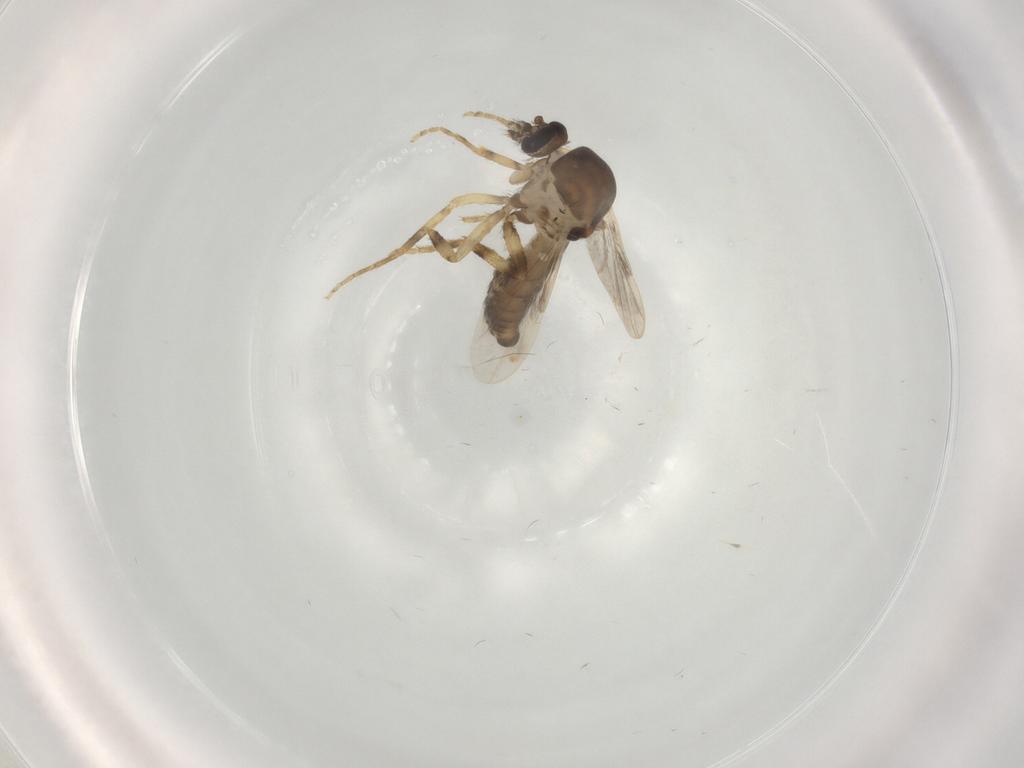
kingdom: Animalia
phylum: Arthropoda
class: Insecta
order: Diptera
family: Ceratopogonidae
